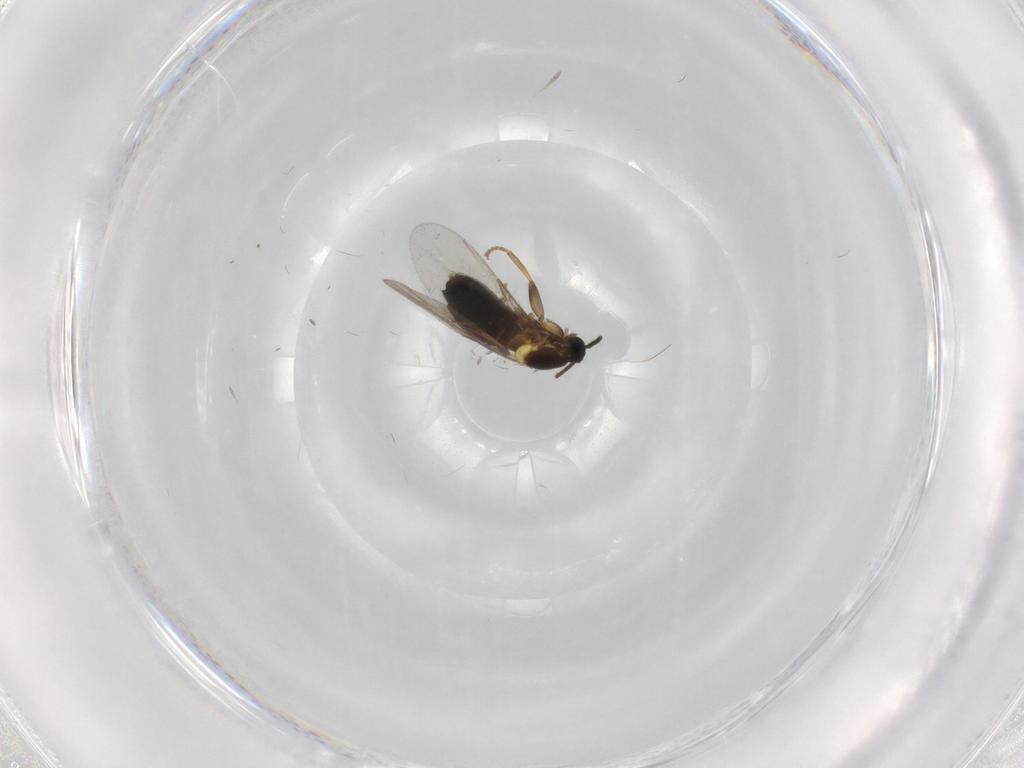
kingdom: Animalia
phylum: Arthropoda
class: Insecta
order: Diptera
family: Scatopsidae
